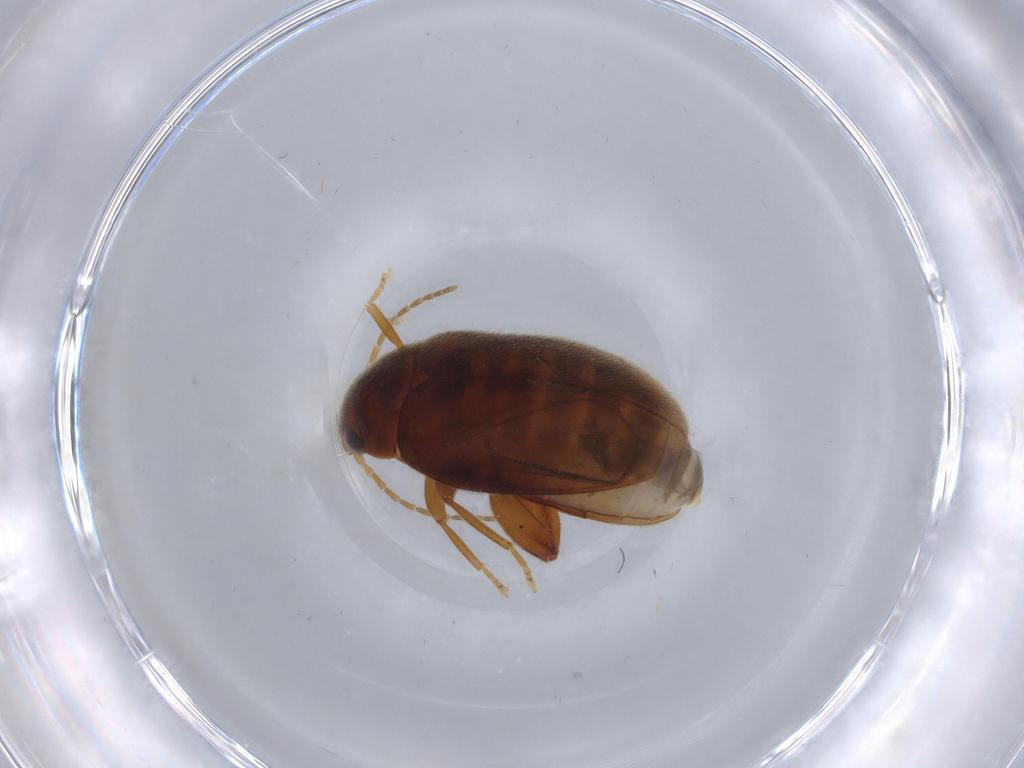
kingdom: Animalia
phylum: Arthropoda
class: Insecta
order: Coleoptera
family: Scirtidae
